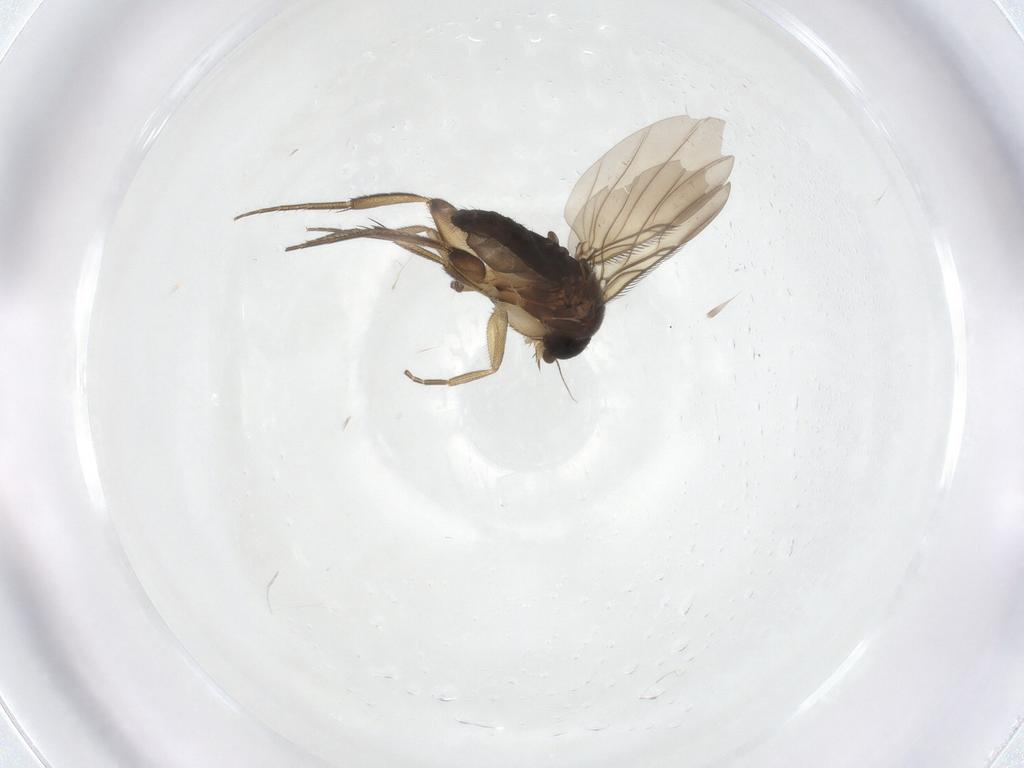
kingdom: Animalia
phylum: Arthropoda
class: Insecta
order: Diptera
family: Phoridae
